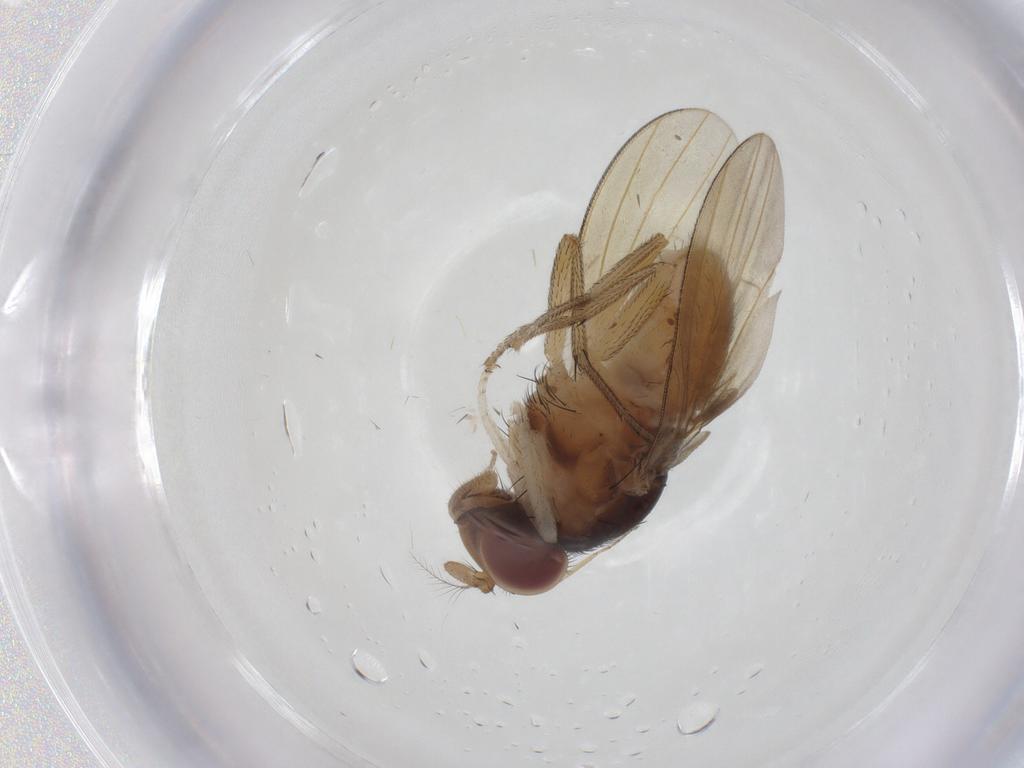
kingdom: Animalia
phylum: Arthropoda
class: Insecta
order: Diptera
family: Lauxaniidae
